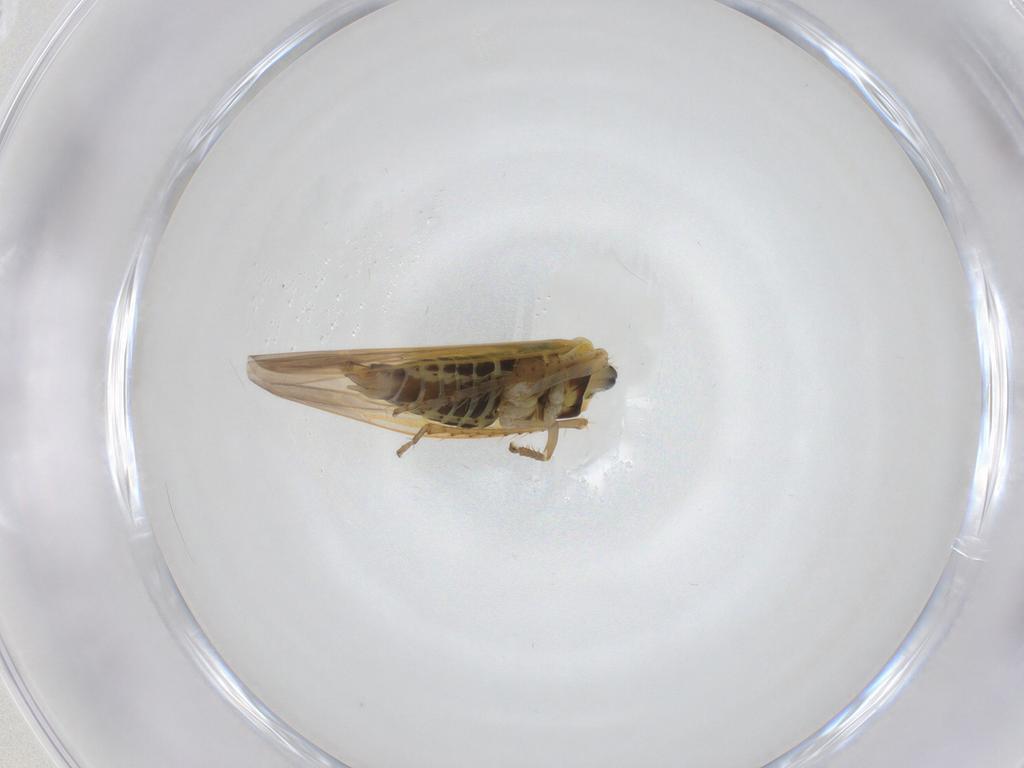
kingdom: Animalia
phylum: Arthropoda
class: Insecta
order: Hemiptera
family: Cicadellidae
